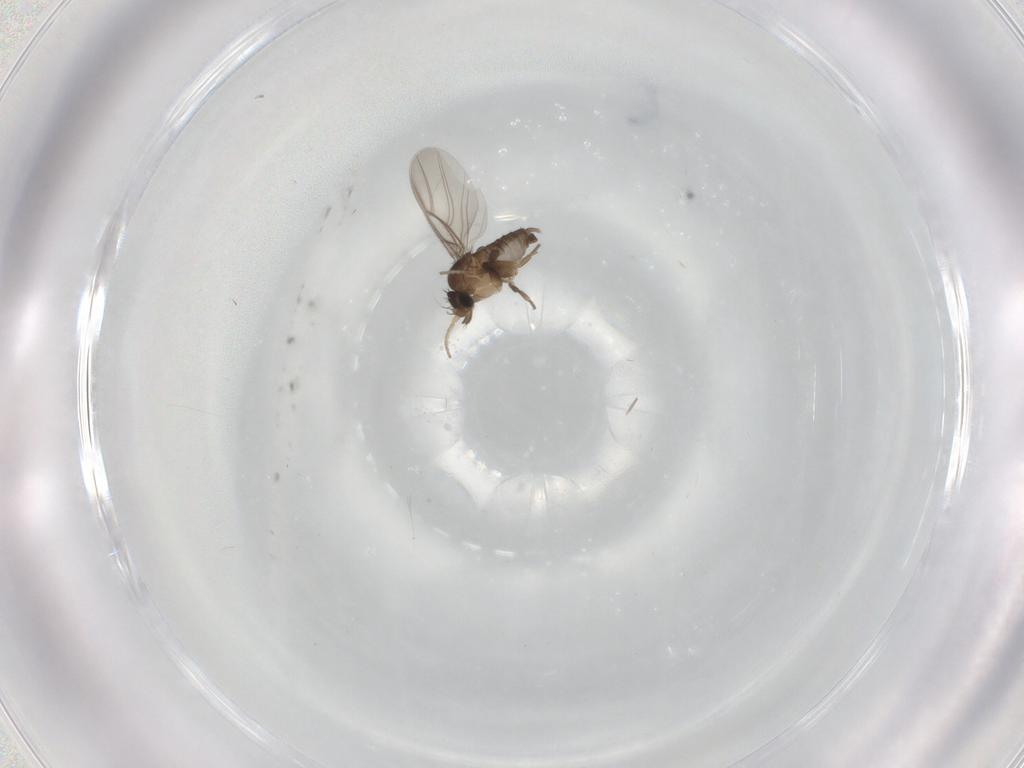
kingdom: Animalia
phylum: Arthropoda
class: Insecta
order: Diptera
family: Phoridae
